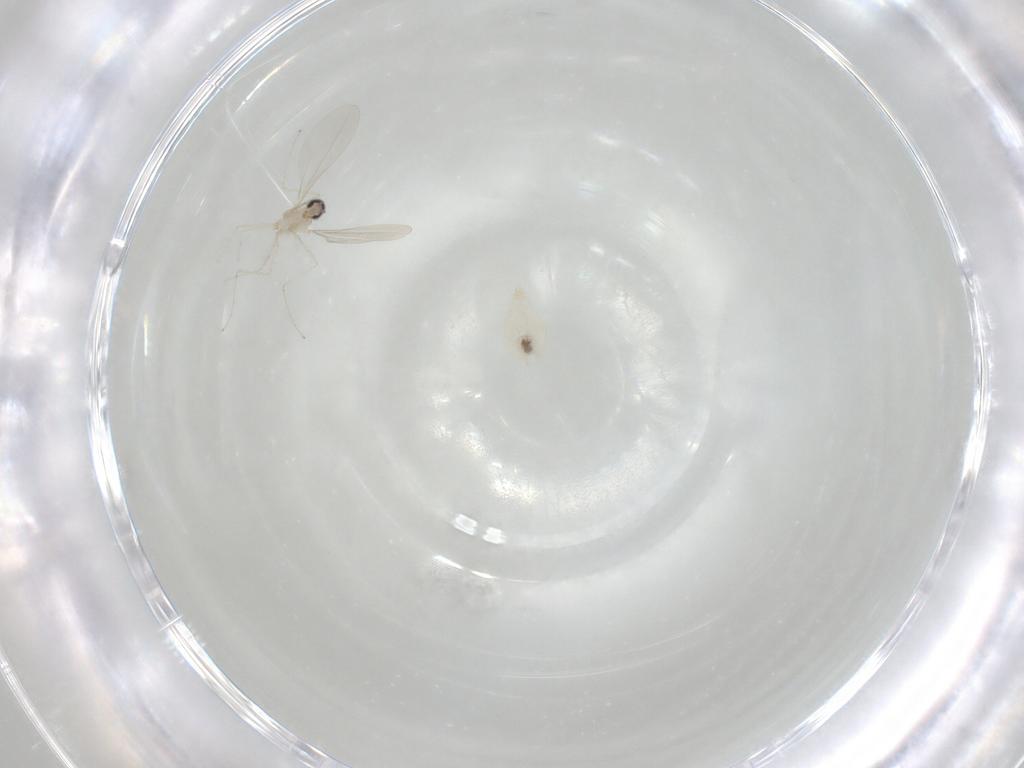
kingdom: Animalia
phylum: Arthropoda
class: Insecta
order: Diptera
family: Cecidomyiidae
